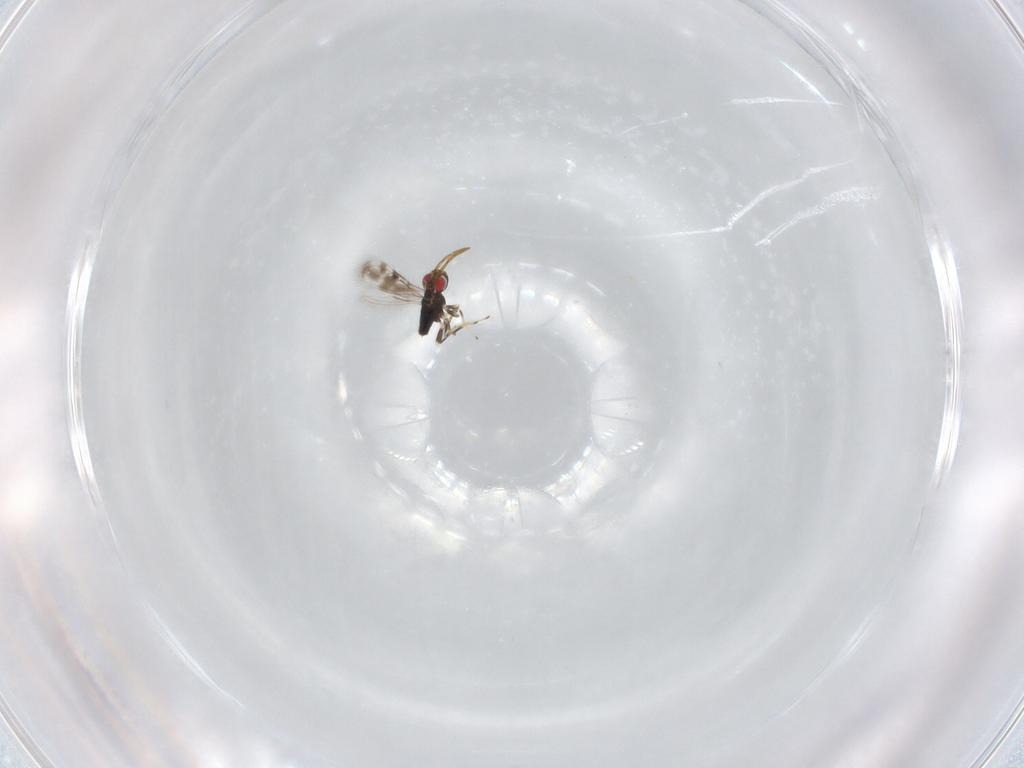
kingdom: Animalia
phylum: Arthropoda
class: Insecta
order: Hymenoptera
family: Azotidae
